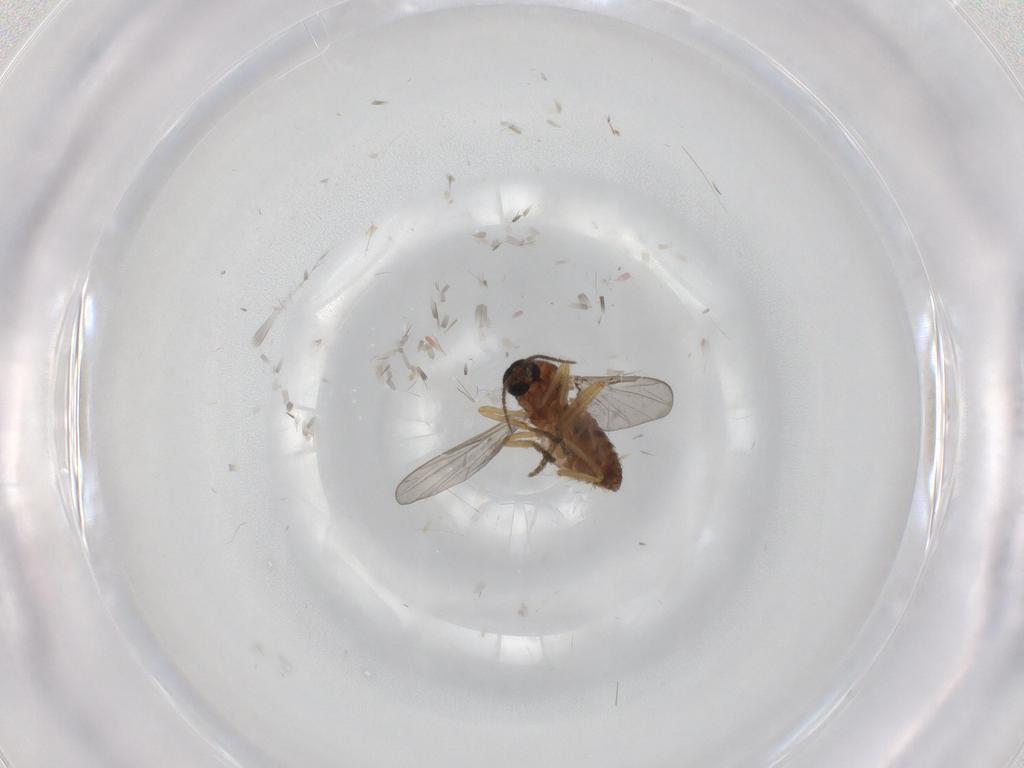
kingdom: Animalia
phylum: Arthropoda
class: Insecta
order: Diptera
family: Ceratopogonidae
